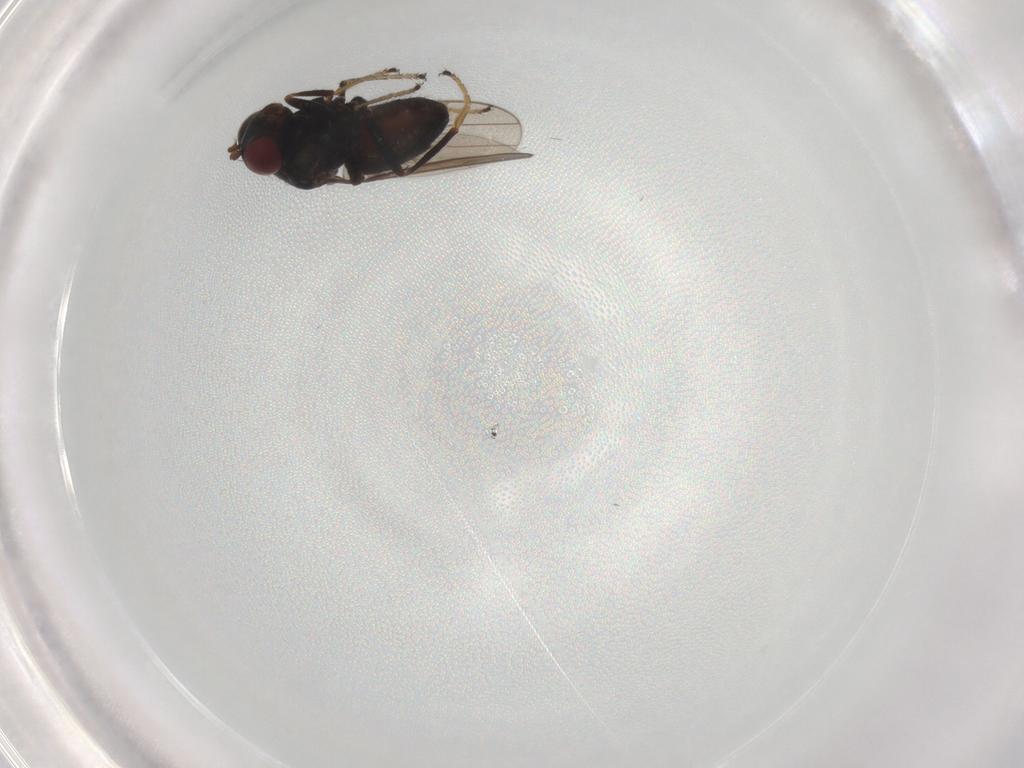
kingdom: Animalia
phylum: Arthropoda
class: Insecta
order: Diptera
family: Ephydridae
